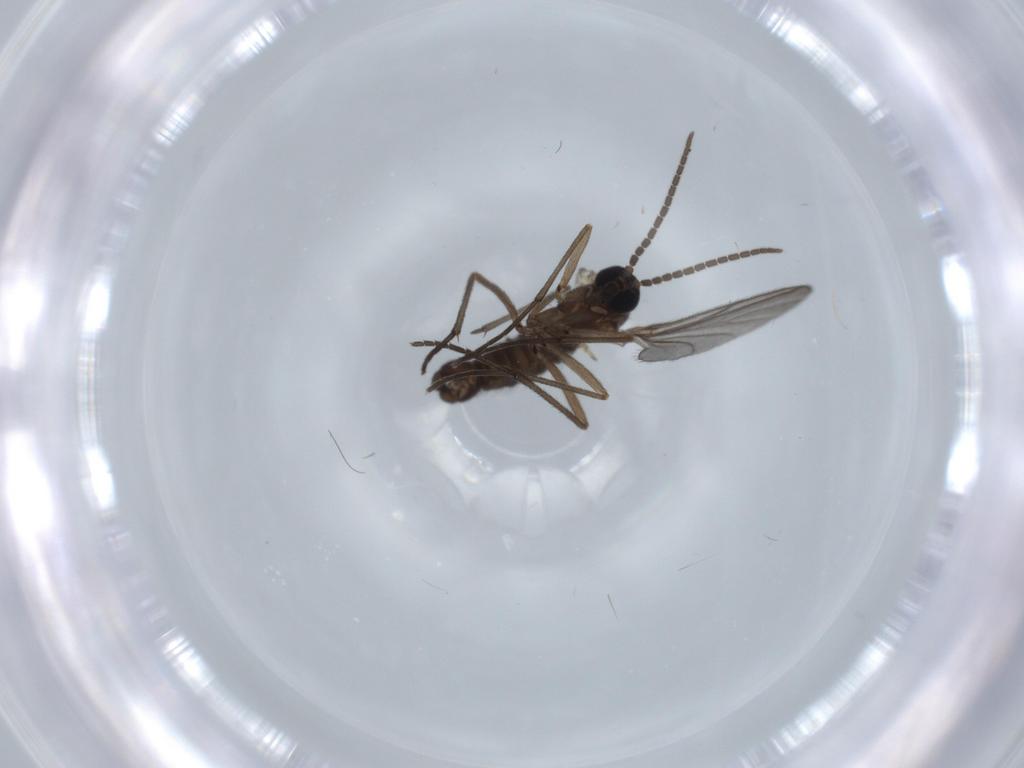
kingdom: Animalia
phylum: Arthropoda
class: Insecta
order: Diptera
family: Sciaridae
